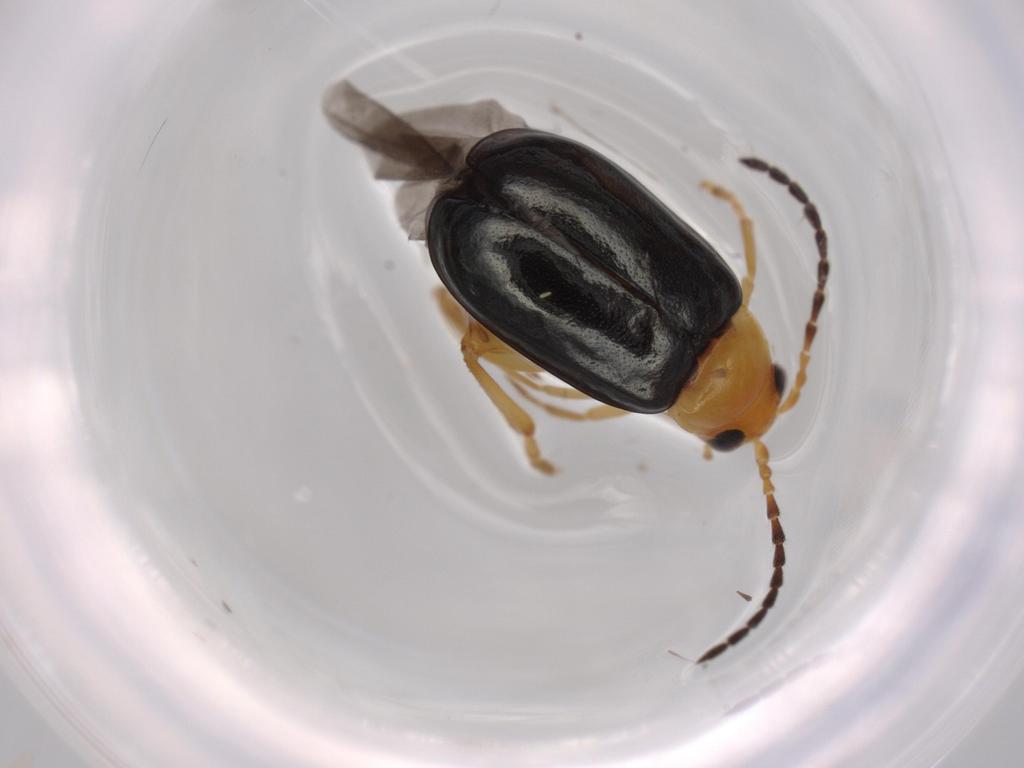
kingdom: Animalia
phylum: Arthropoda
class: Insecta
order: Coleoptera
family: Chrysomelidae
